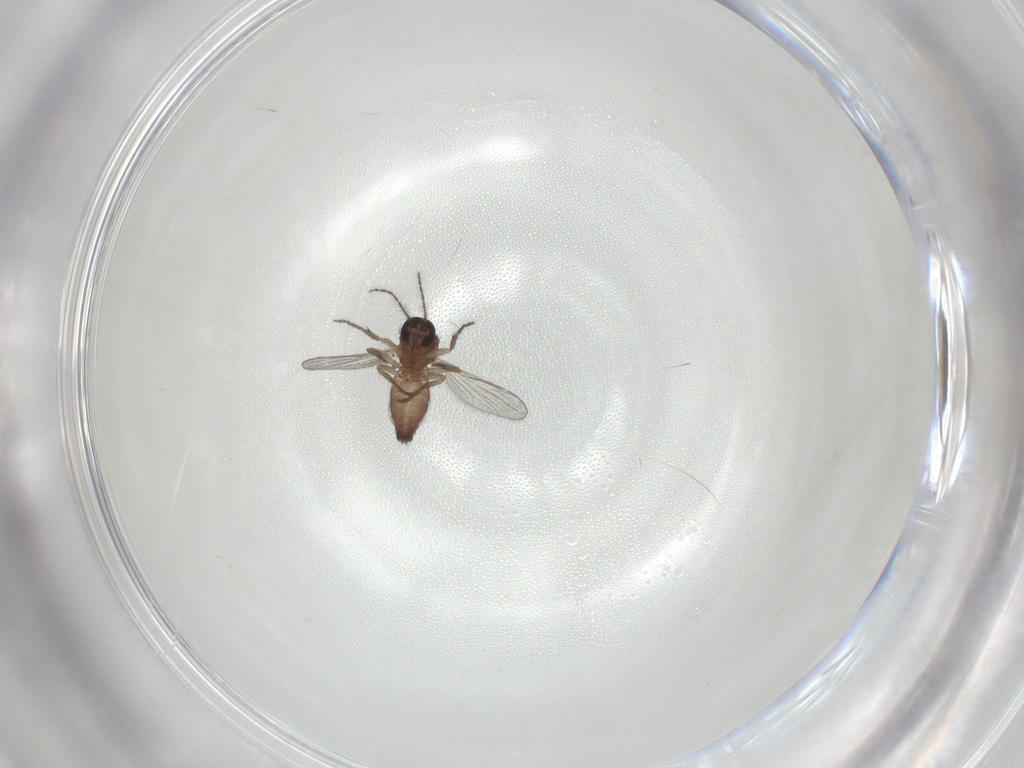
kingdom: Animalia
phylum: Arthropoda
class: Insecta
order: Diptera
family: Ceratopogonidae
